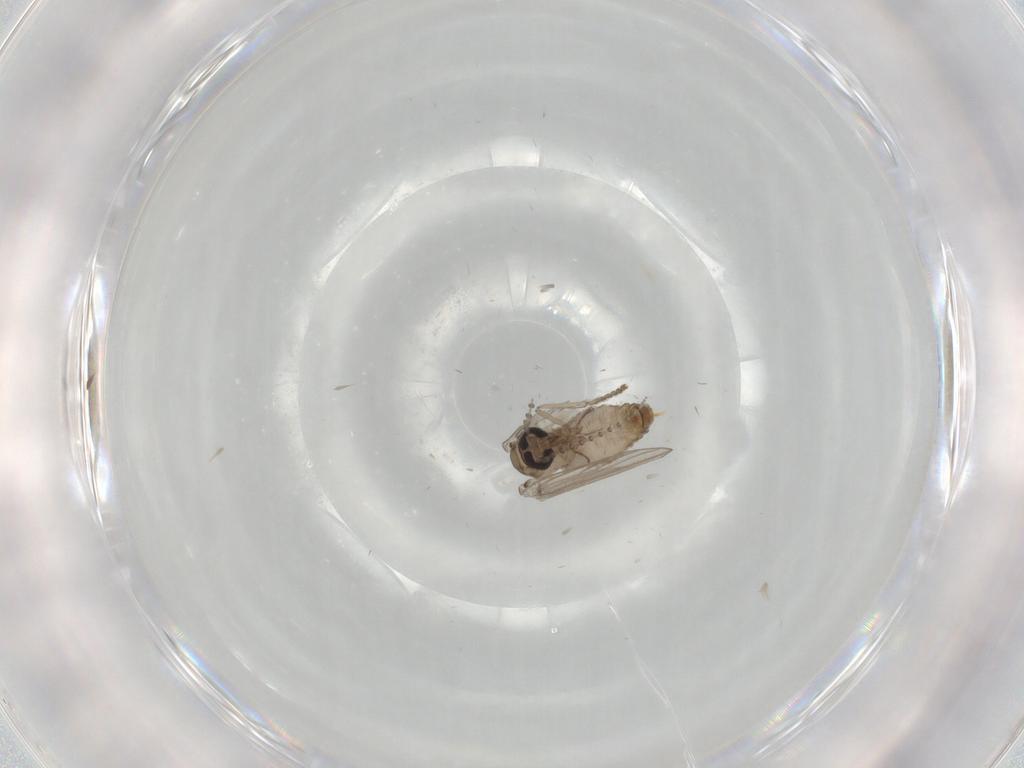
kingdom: Animalia
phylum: Arthropoda
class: Insecta
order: Diptera
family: Psychodidae
